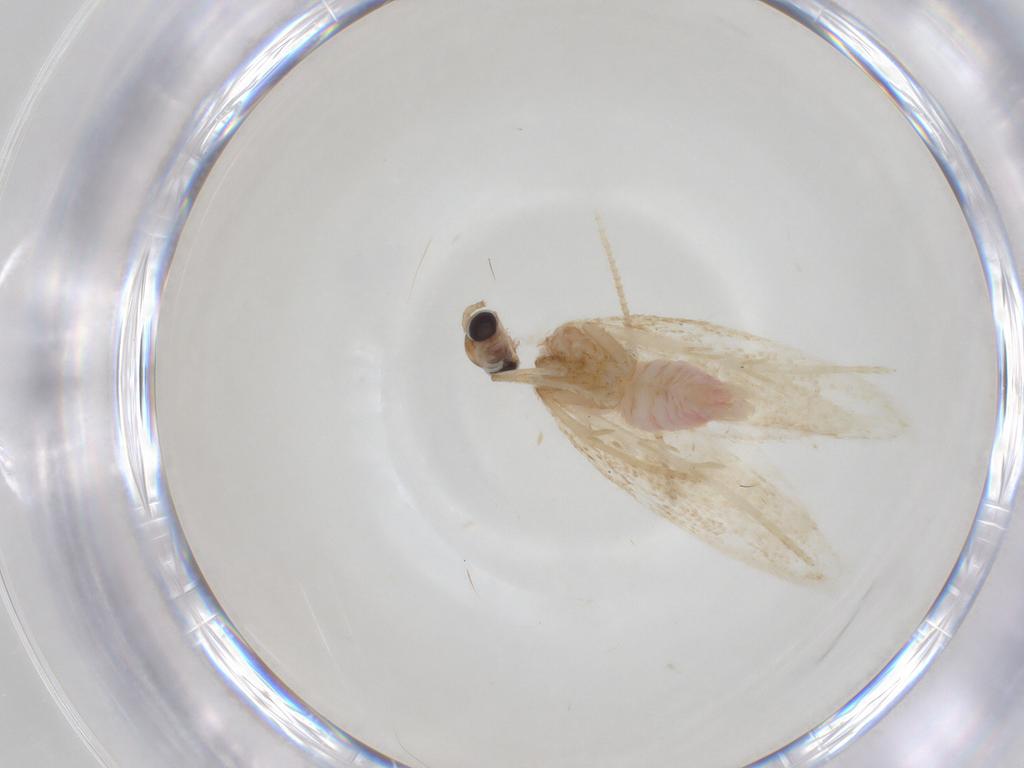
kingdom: Animalia
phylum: Arthropoda
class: Insecta
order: Lepidoptera
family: Autostichidae
